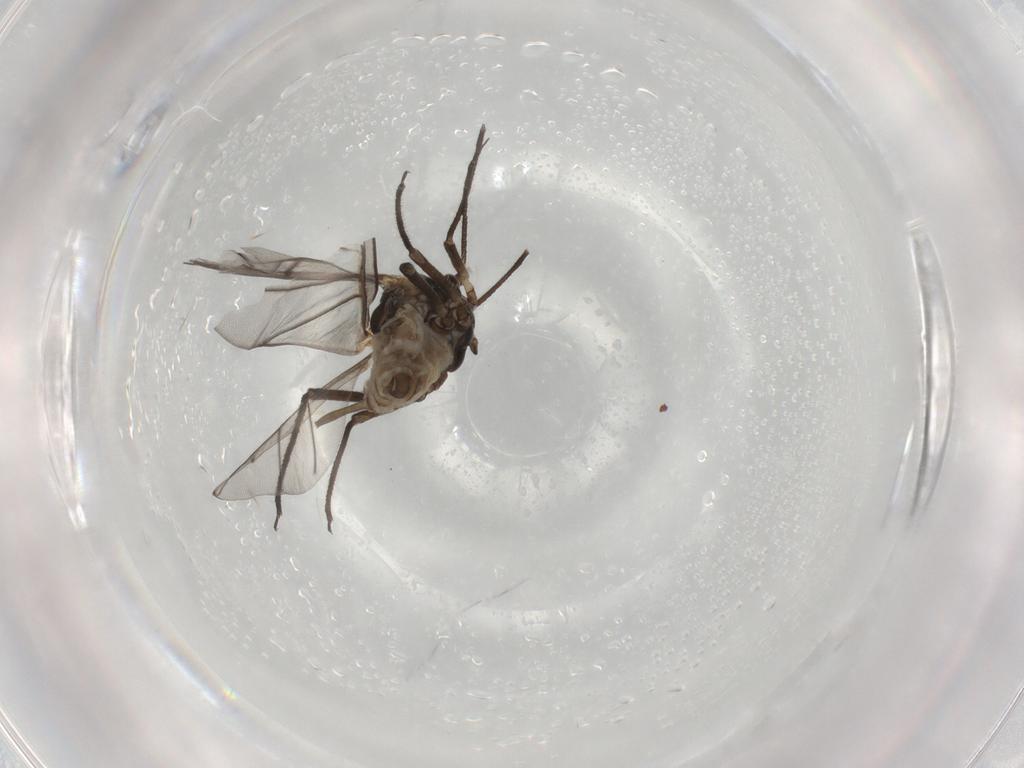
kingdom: Animalia
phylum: Arthropoda
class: Insecta
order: Hemiptera
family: Aphididae
